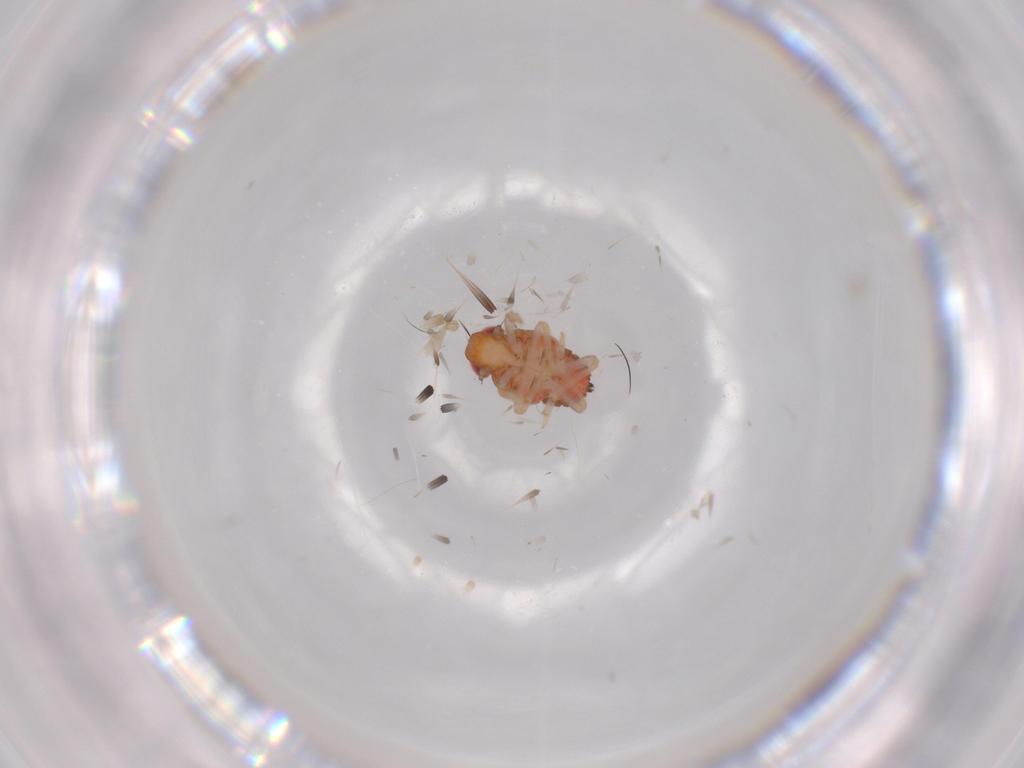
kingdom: Animalia
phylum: Arthropoda
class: Insecta
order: Hemiptera
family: Issidae
